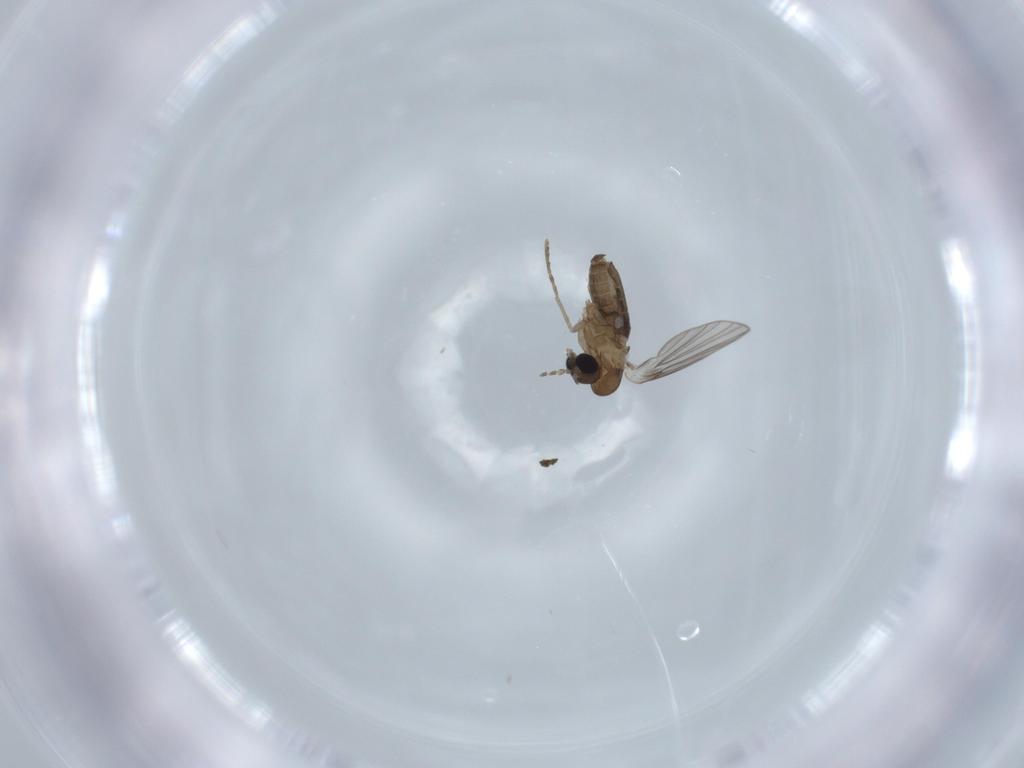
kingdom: Animalia
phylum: Arthropoda
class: Insecta
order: Diptera
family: Psychodidae
